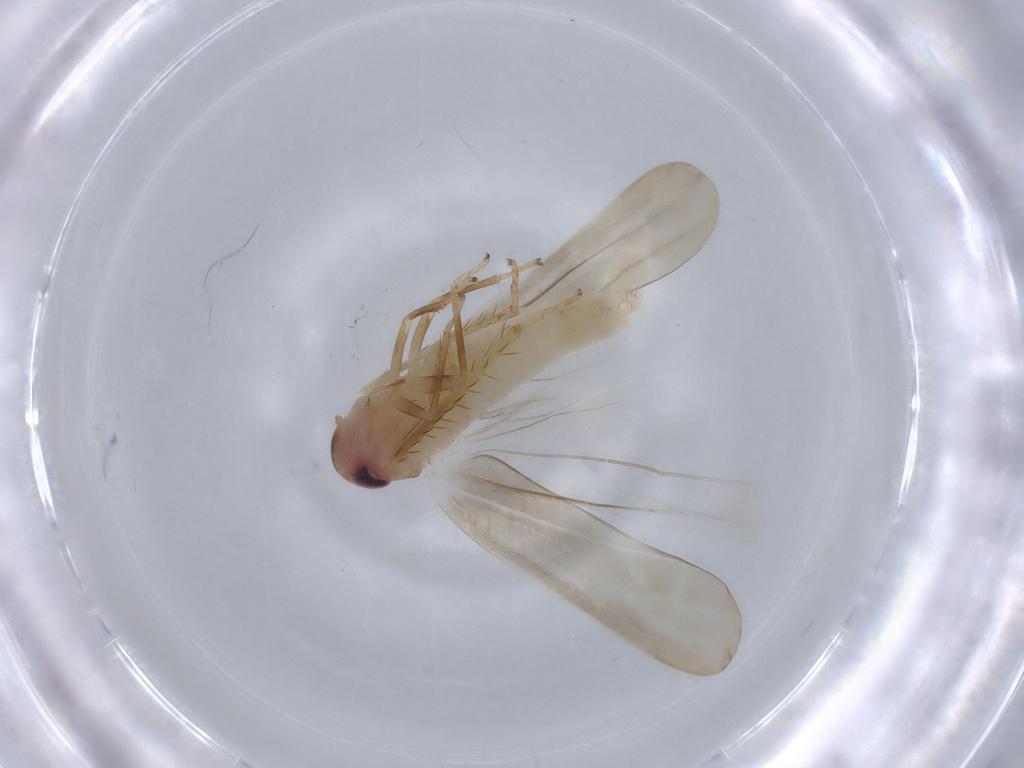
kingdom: Animalia
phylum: Arthropoda
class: Insecta
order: Hemiptera
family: Cicadellidae
